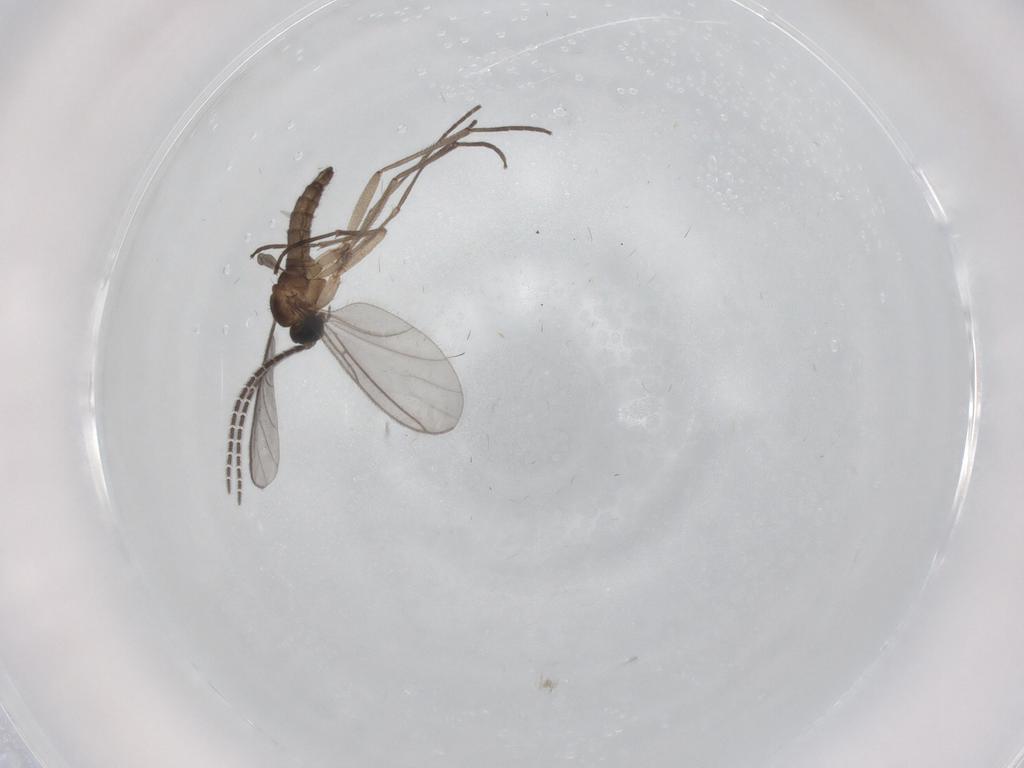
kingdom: Animalia
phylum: Arthropoda
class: Insecta
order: Diptera
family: Sciaridae
